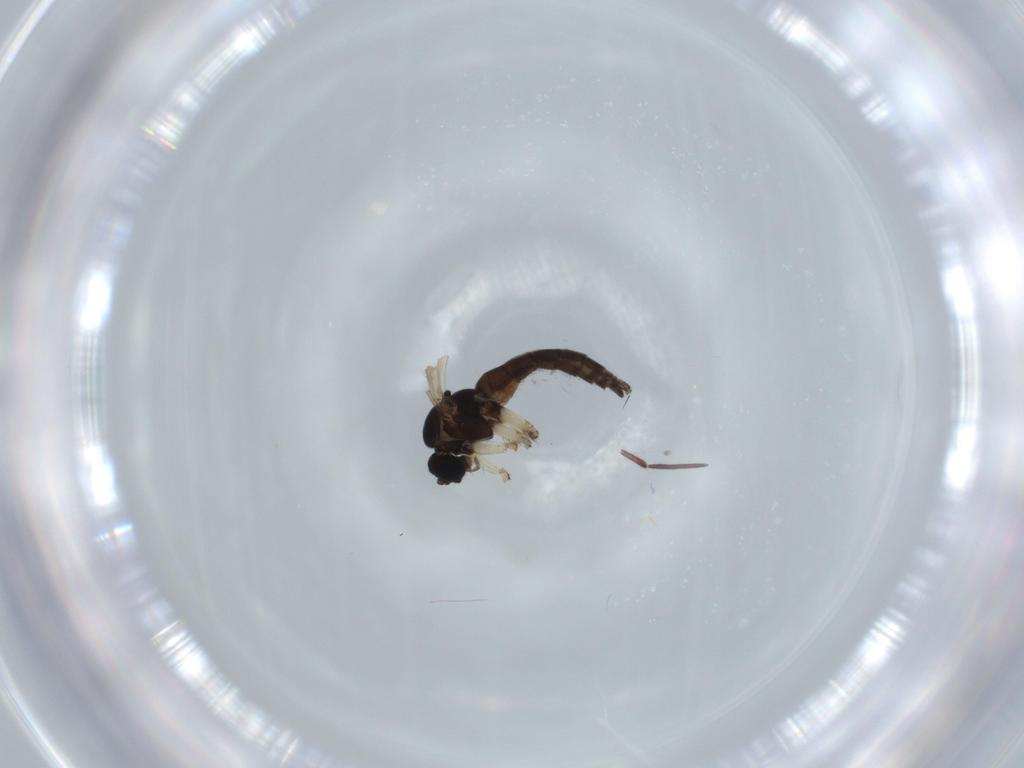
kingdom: Animalia
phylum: Arthropoda
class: Insecta
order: Diptera
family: Sciaridae
